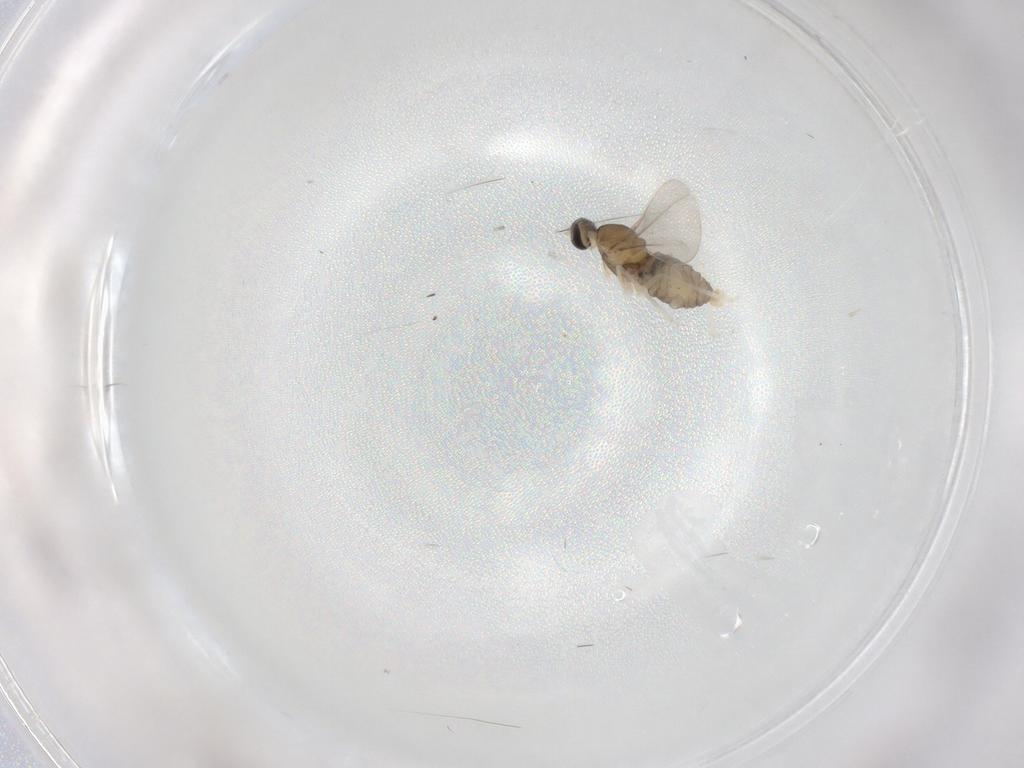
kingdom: Animalia
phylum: Arthropoda
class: Insecta
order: Diptera
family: Cecidomyiidae
